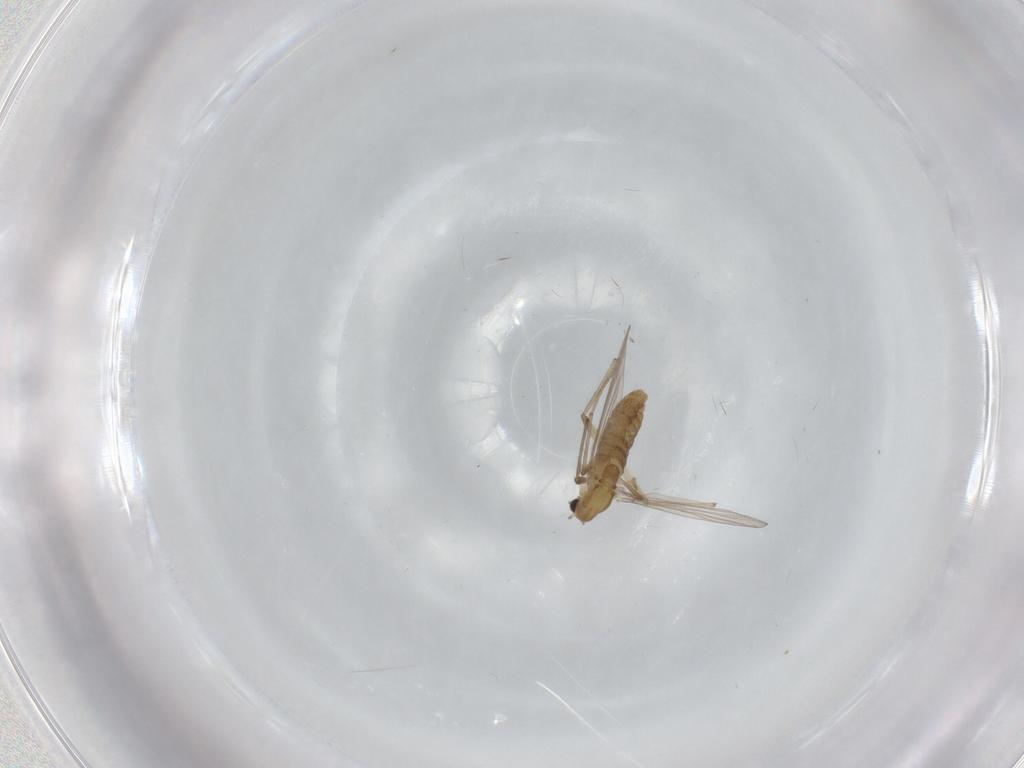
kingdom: Animalia
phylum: Arthropoda
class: Insecta
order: Diptera
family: Chironomidae
